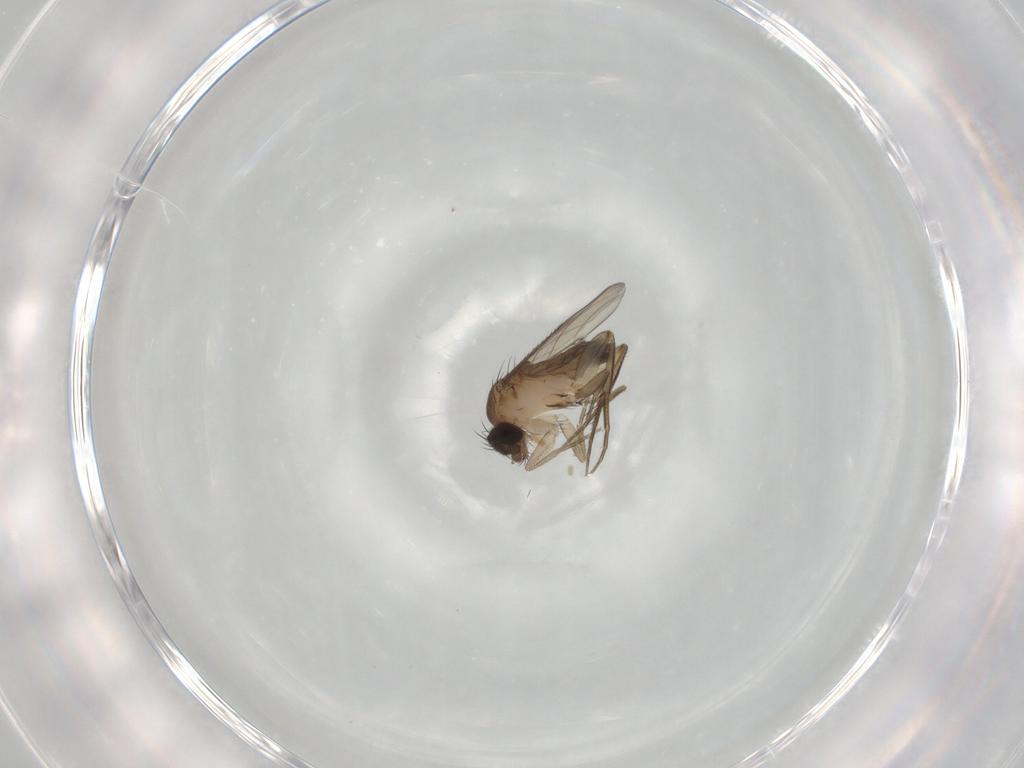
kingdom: Animalia
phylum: Arthropoda
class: Insecta
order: Diptera
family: Phoridae
